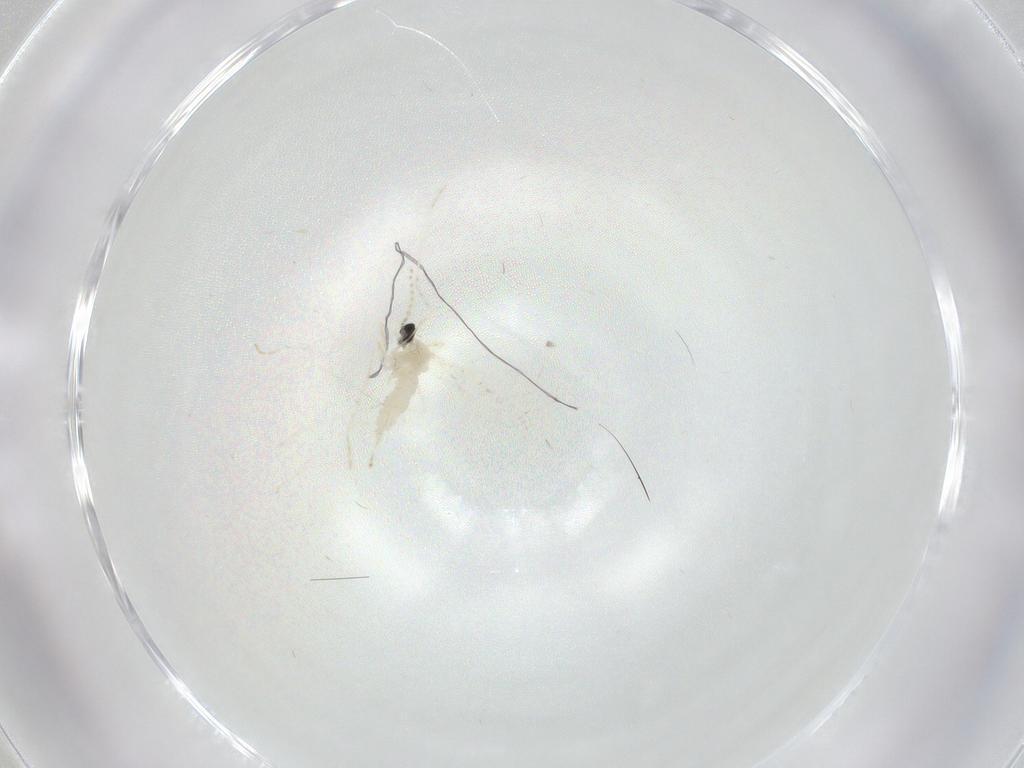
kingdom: Animalia
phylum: Arthropoda
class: Insecta
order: Diptera
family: Cecidomyiidae
